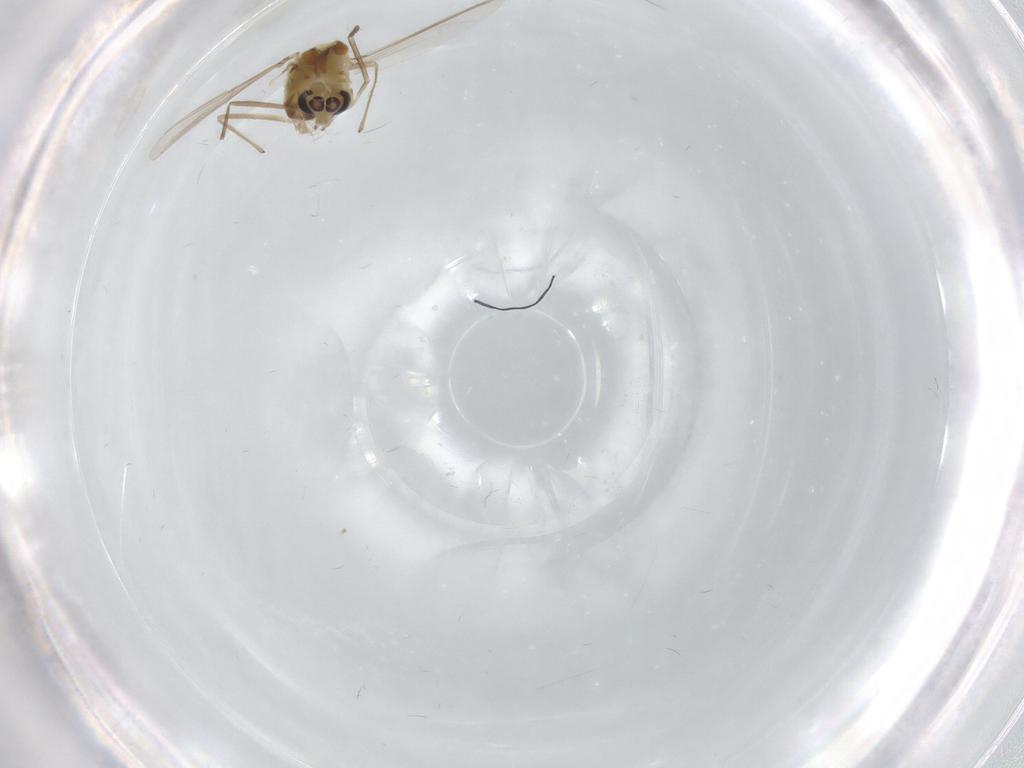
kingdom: Animalia
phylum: Arthropoda
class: Insecta
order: Diptera
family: Chironomidae
